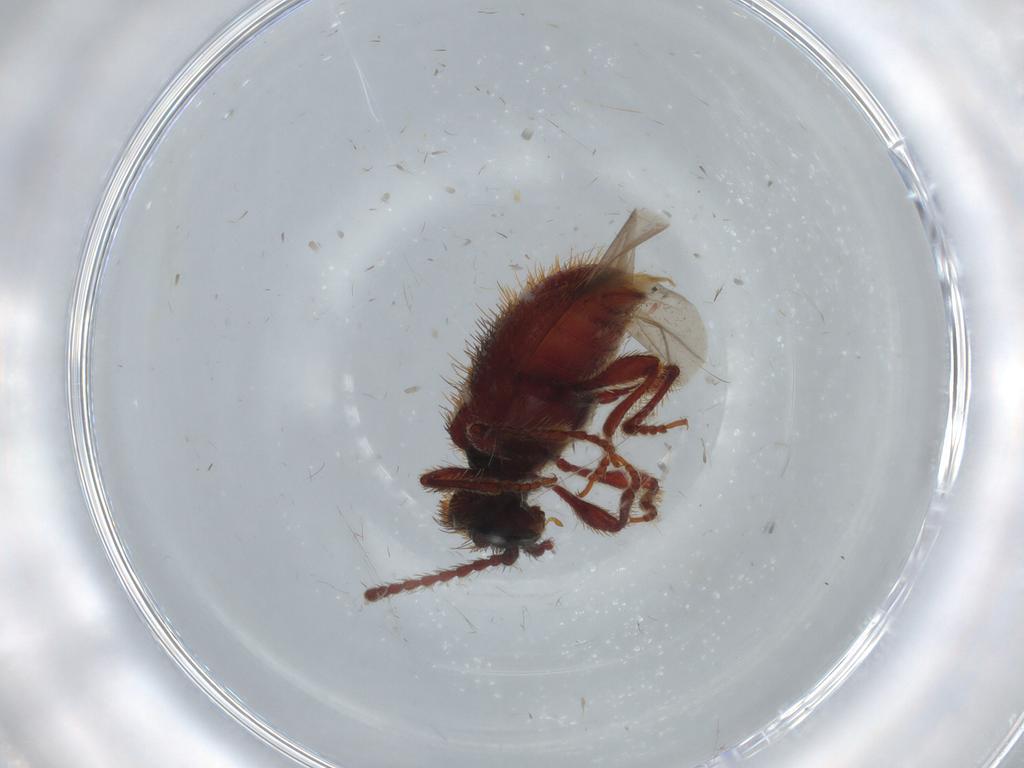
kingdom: Animalia
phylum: Arthropoda
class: Insecta
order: Coleoptera
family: Ptinidae
